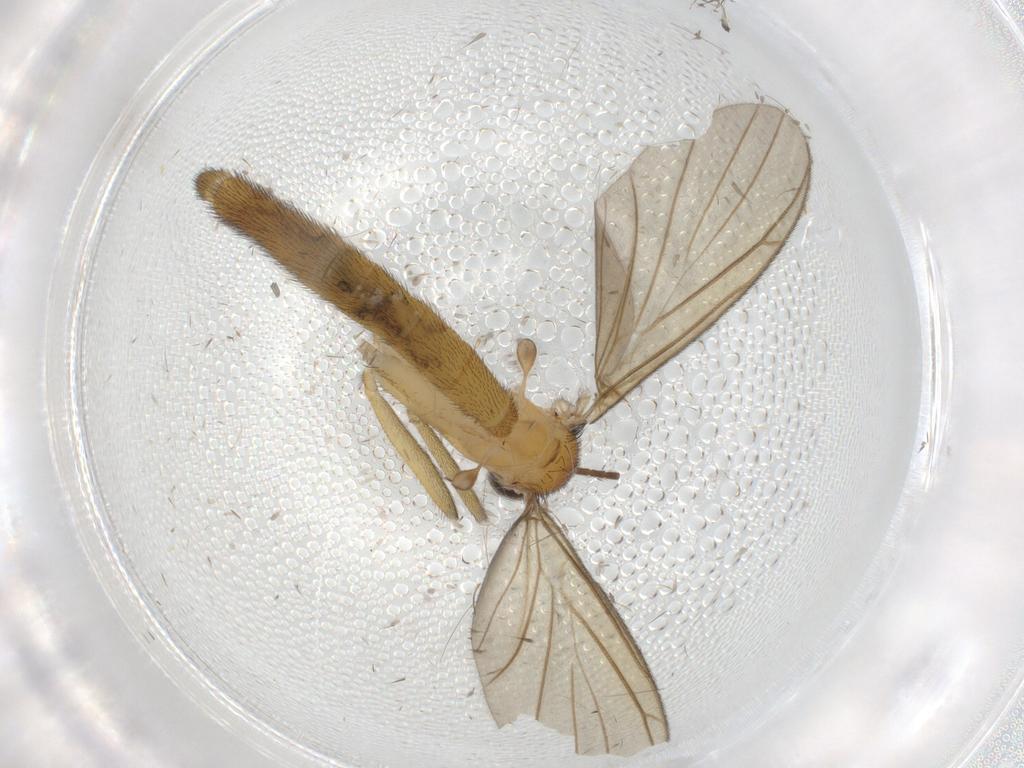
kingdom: Animalia
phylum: Arthropoda
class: Insecta
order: Diptera
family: Cecidomyiidae
